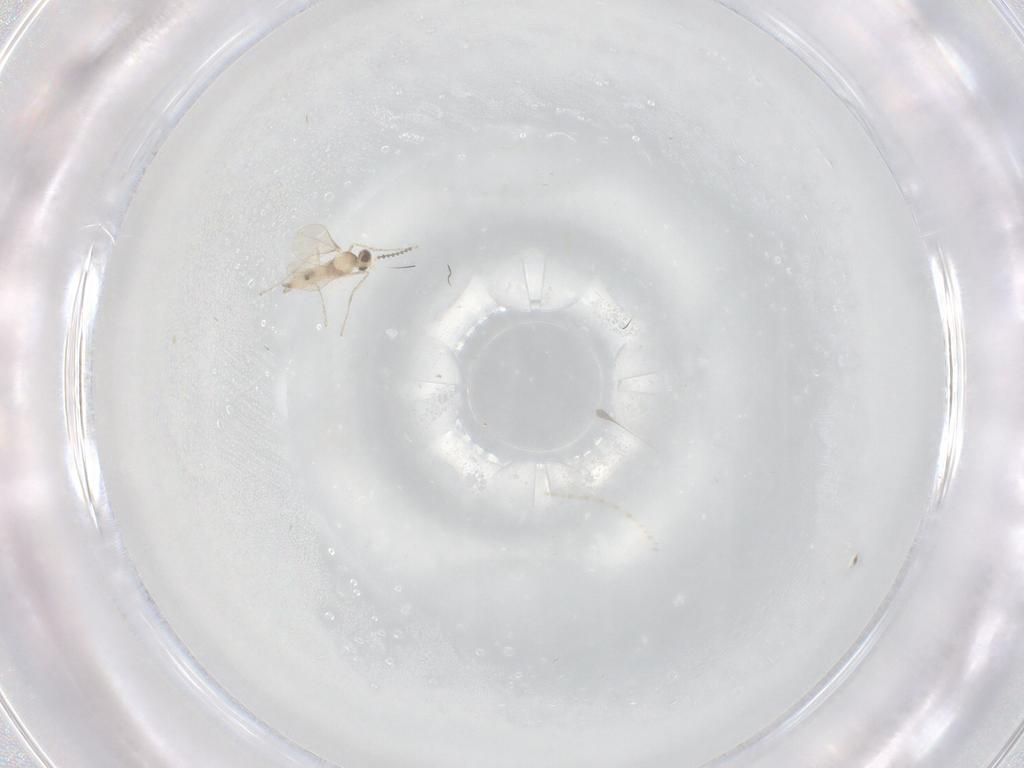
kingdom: Animalia
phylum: Arthropoda
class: Insecta
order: Diptera
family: Cecidomyiidae
